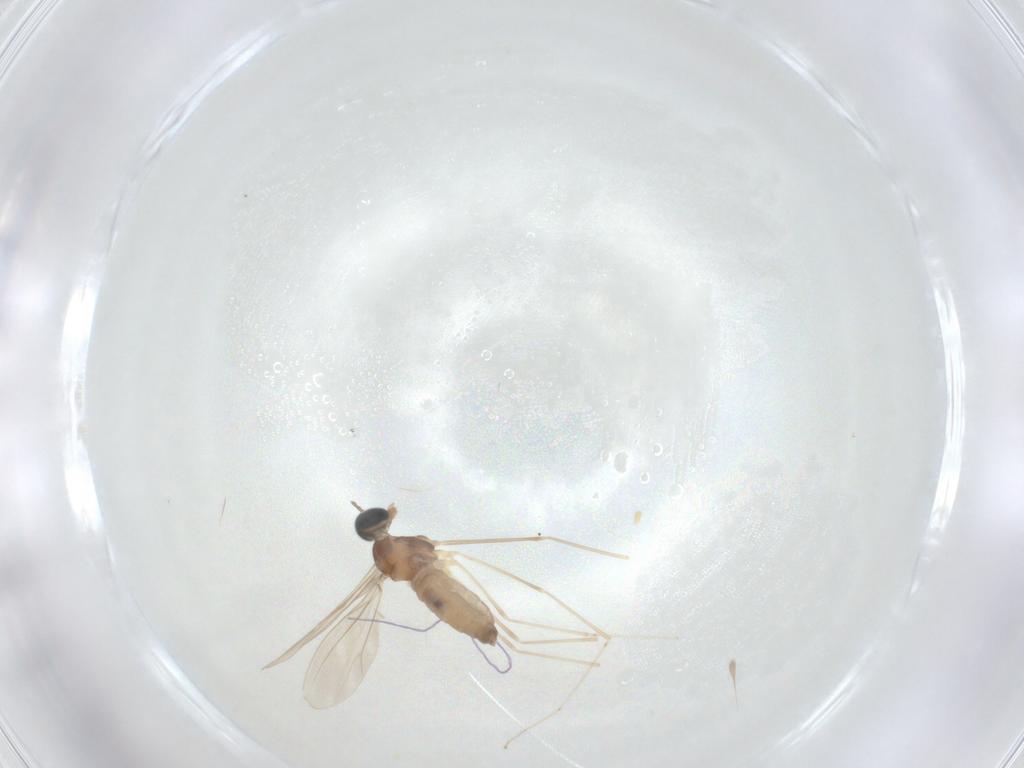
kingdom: Animalia
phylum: Arthropoda
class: Insecta
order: Diptera
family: Cecidomyiidae
